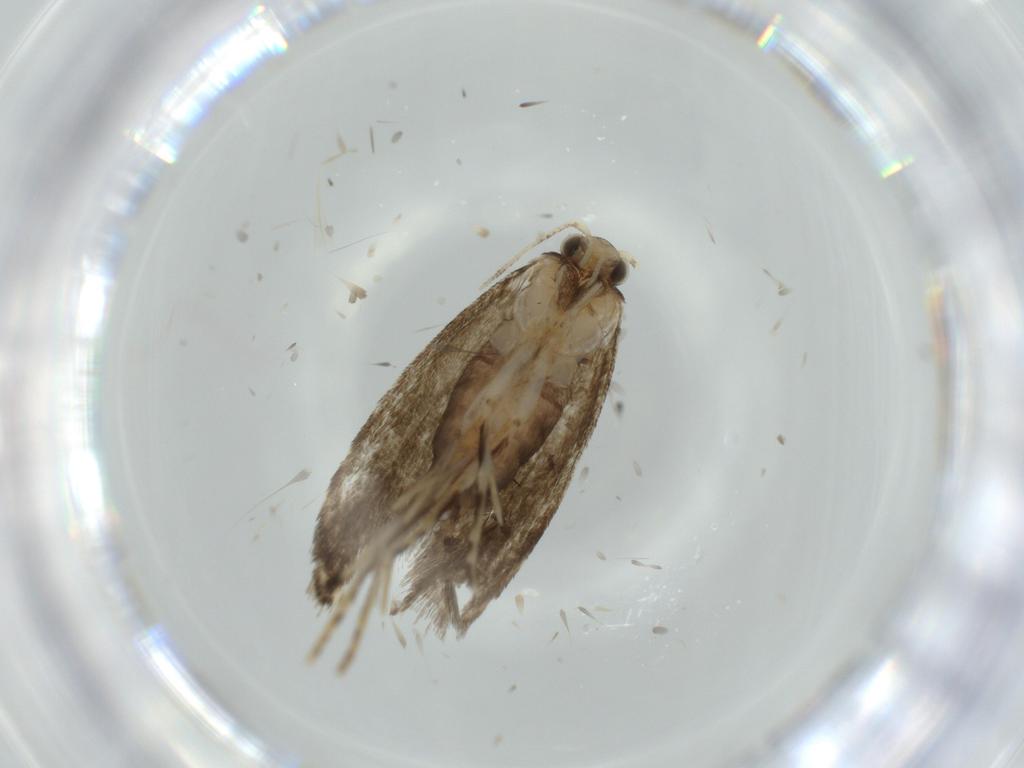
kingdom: Animalia
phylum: Arthropoda
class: Insecta
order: Lepidoptera
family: Tineidae
